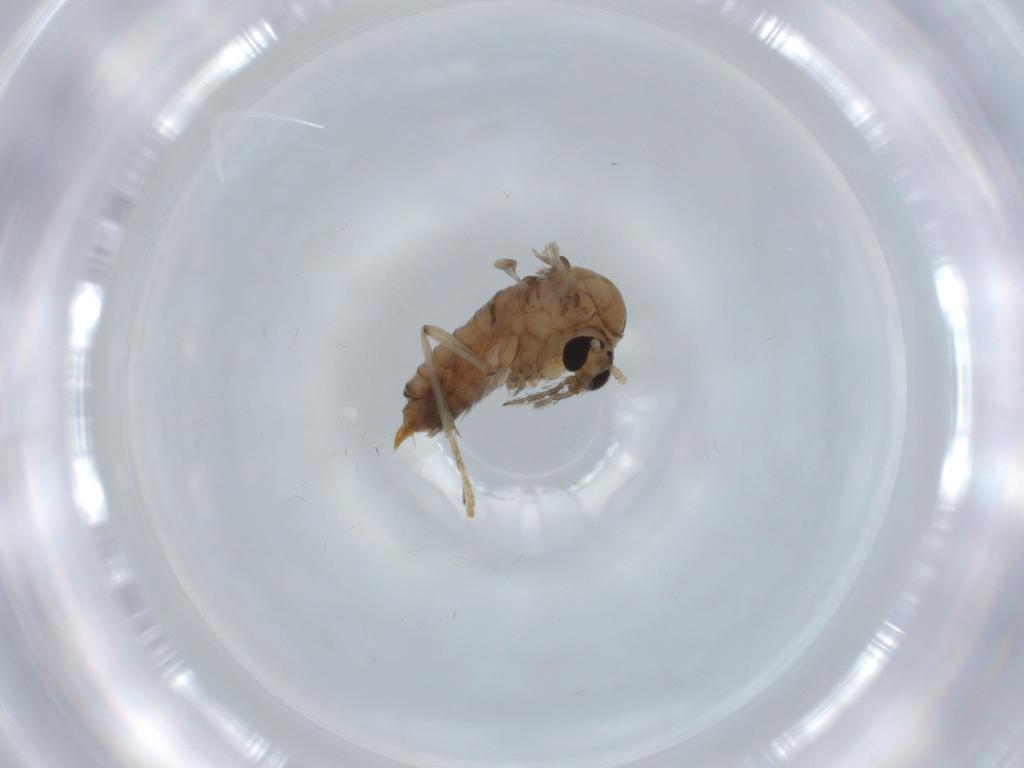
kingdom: Animalia
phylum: Arthropoda
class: Insecta
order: Diptera
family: Psychodidae
